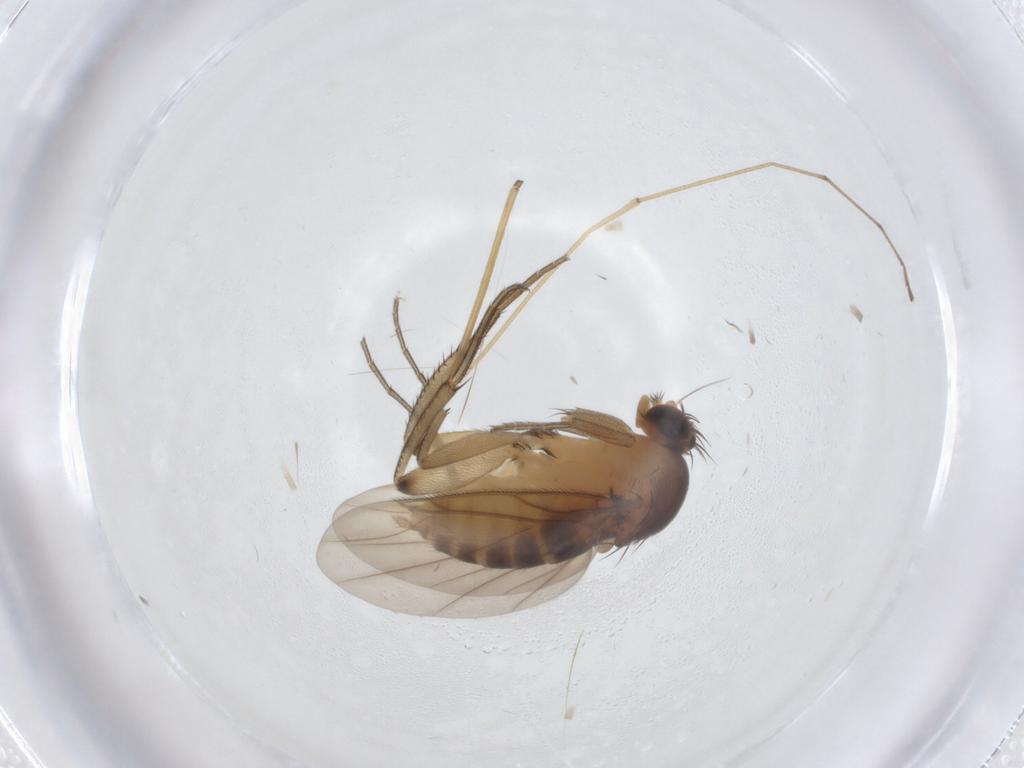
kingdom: Animalia
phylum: Arthropoda
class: Insecta
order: Diptera
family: Phoridae
